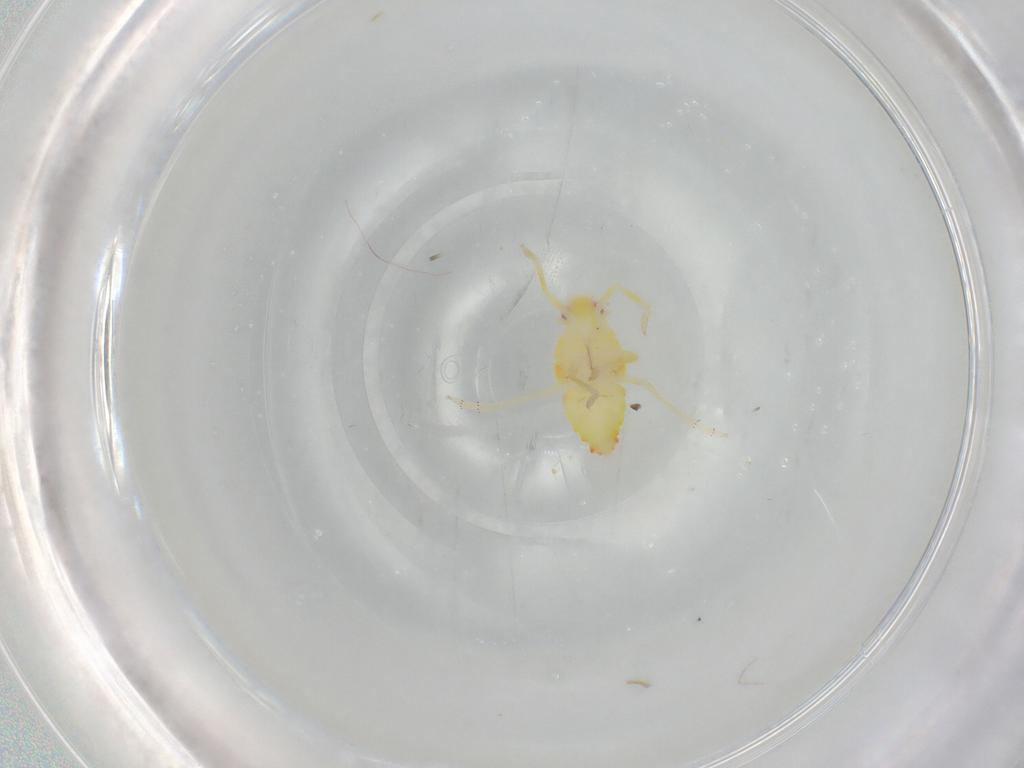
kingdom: Animalia
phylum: Arthropoda
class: Insecta
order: Hemiptera
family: Tropiduchidae
